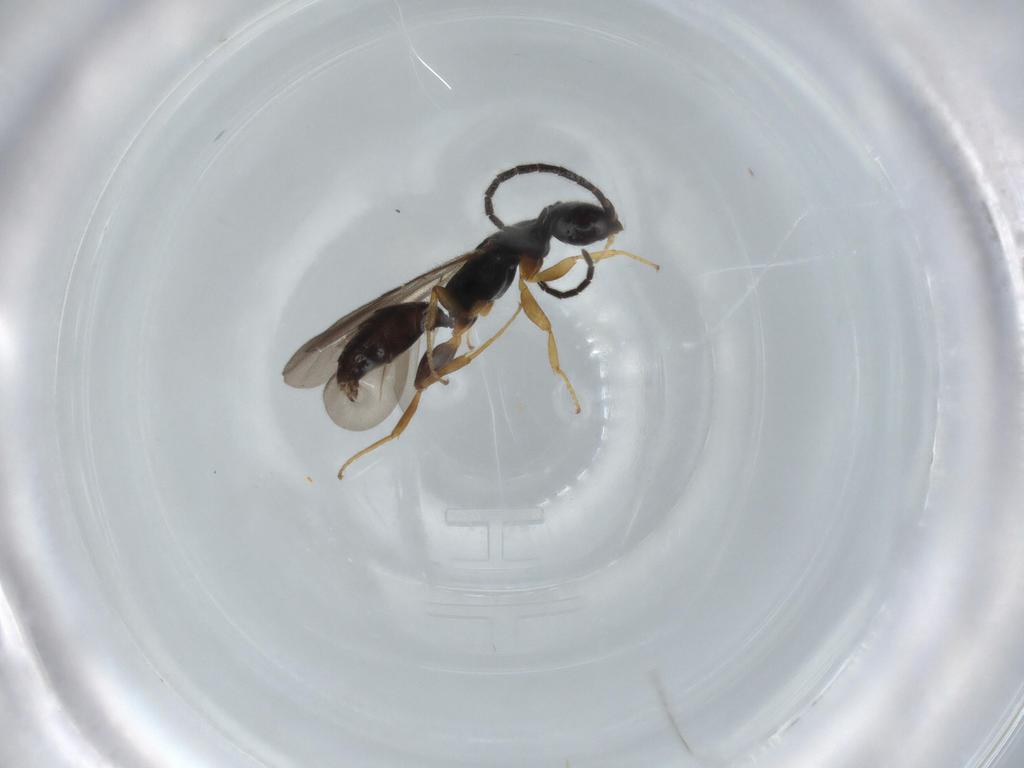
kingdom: Animalia
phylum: Arthropoda
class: Insecta
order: Hymenoptera
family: Bethylidae
